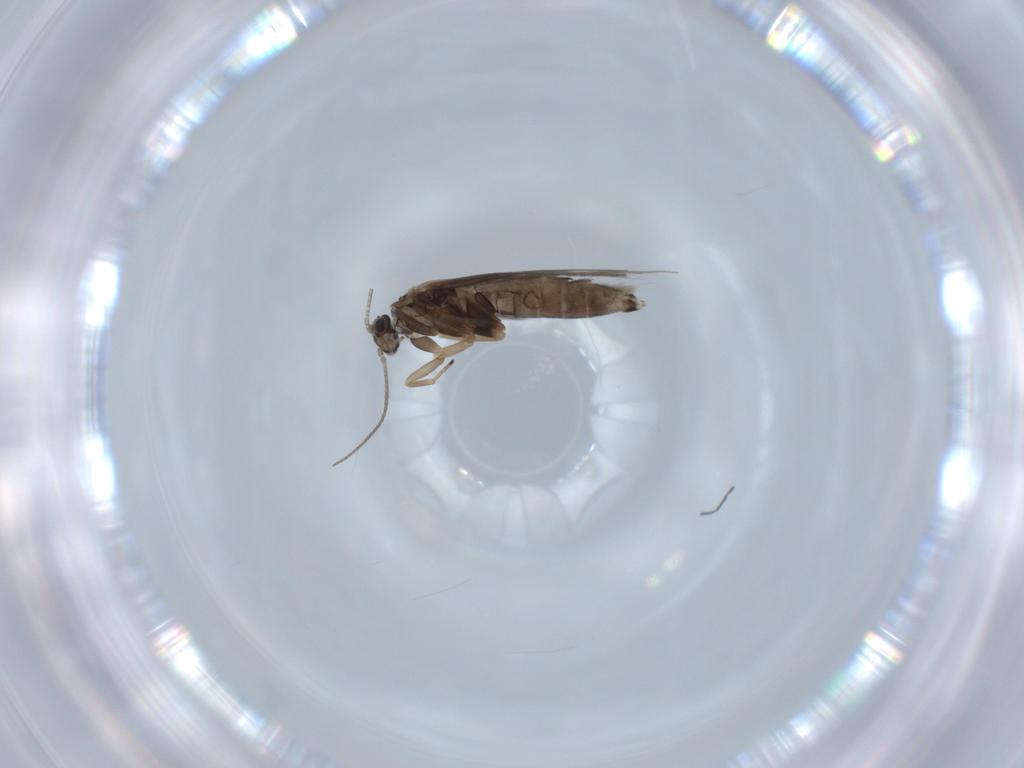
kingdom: Animalia
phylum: Arthropoda
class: Insecta
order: Trichoptera
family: Hydroptilidae
